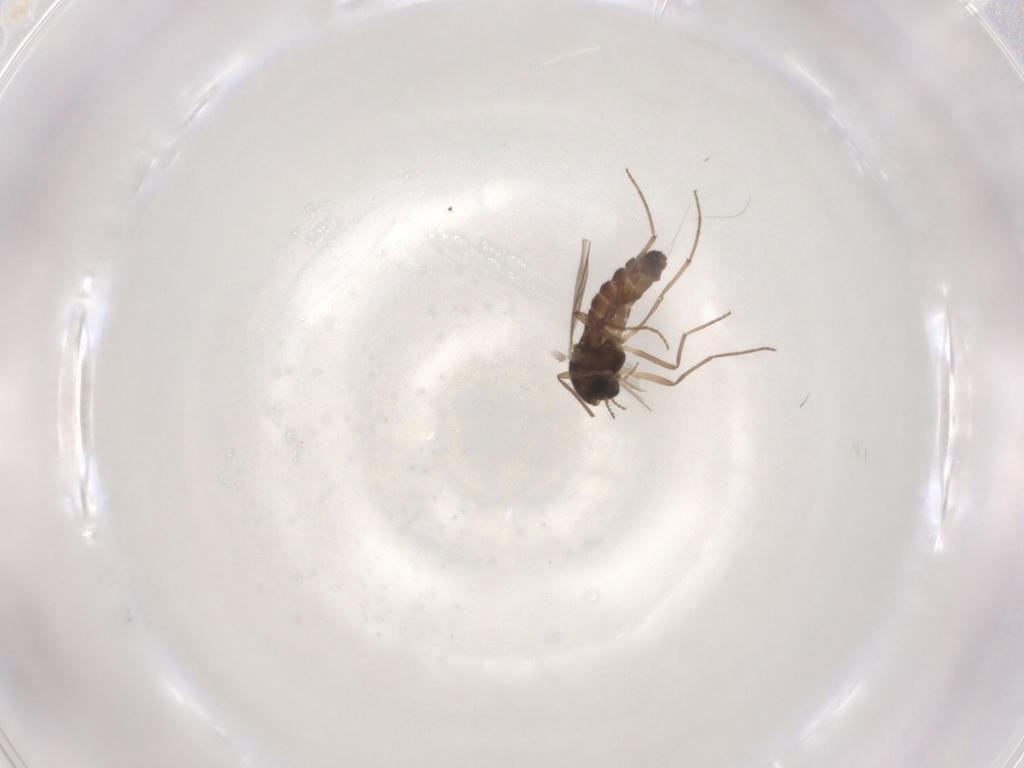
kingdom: Animalia
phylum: Arthropoda
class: Insecta
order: Diptera
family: Chironomidae
